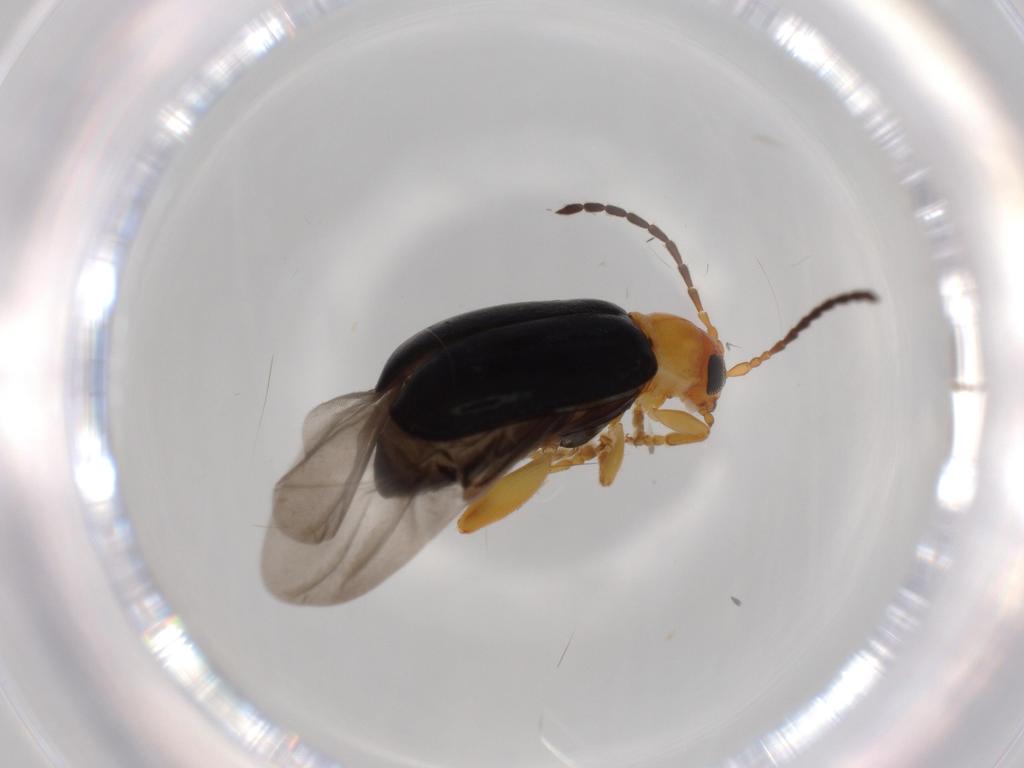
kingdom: Animalia
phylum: Arthropoda
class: Insecta
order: Coleoptera
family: Chrysomelidae
